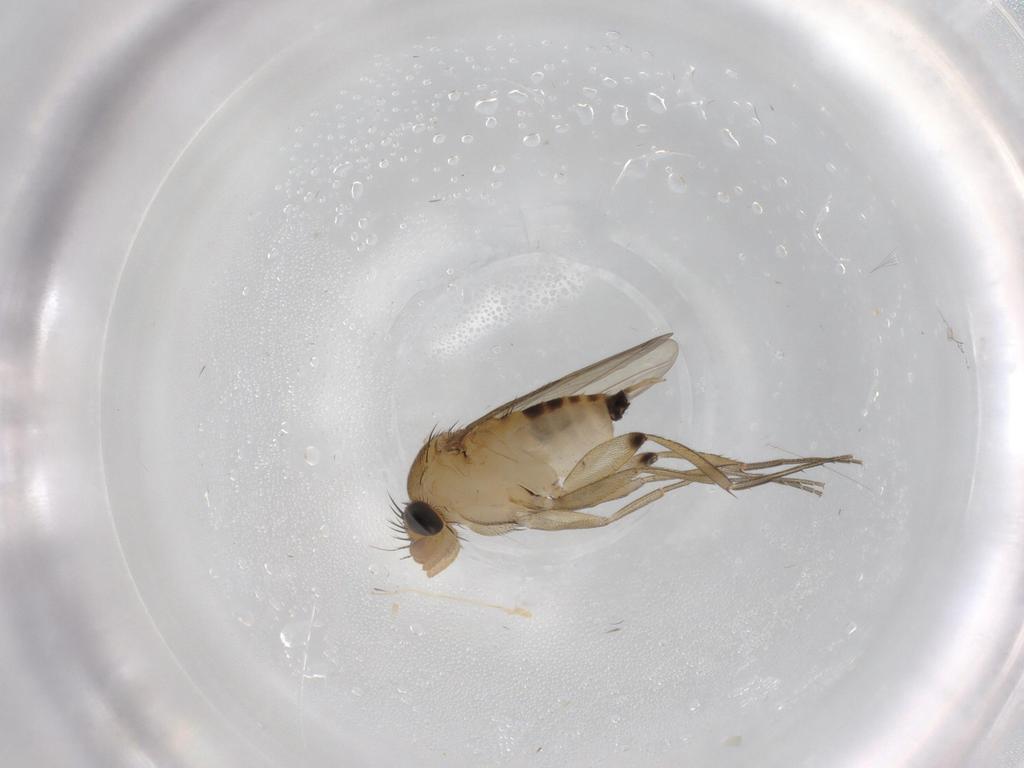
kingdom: Animalia
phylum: Arthropoda
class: Insecta
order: Diptera
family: Phoridae
